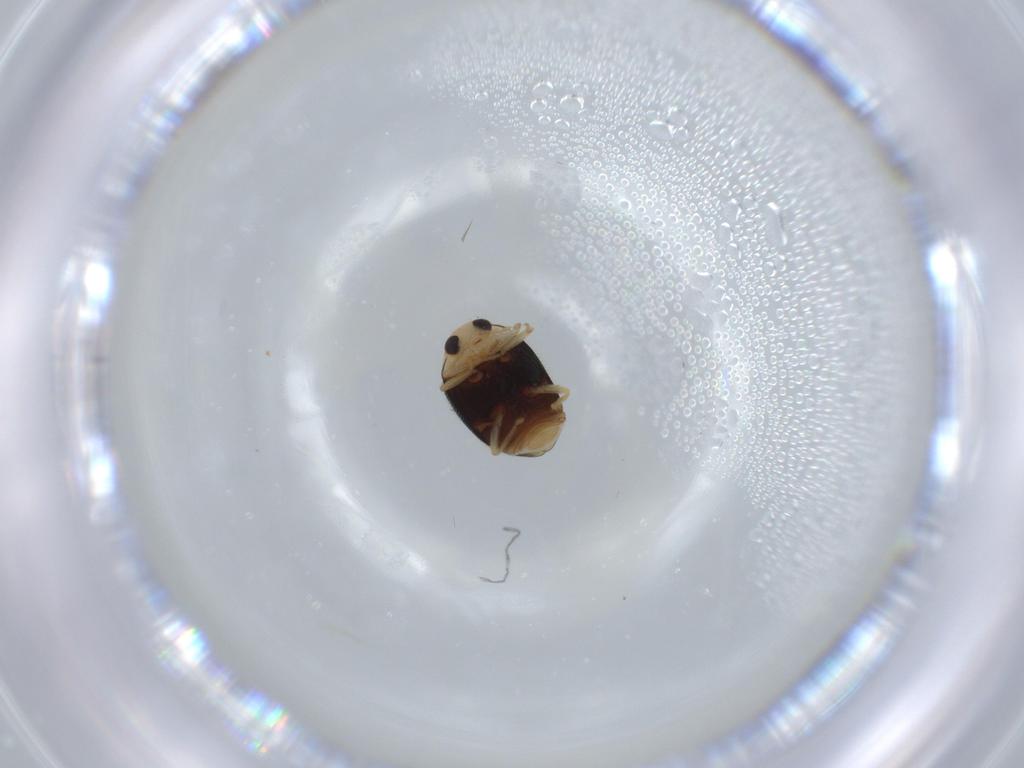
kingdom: Animalia
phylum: Arthropoda
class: Insecta
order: Coleoptera
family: Coccinellidae
